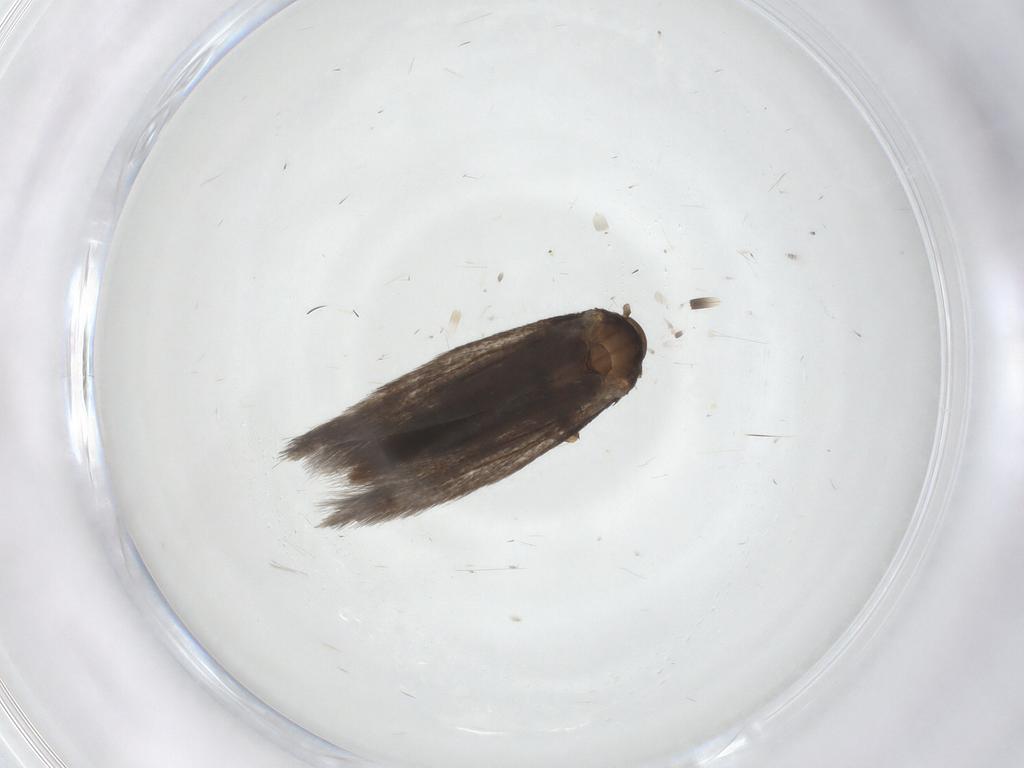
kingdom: Animalia
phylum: Arthropoda
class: Insecta
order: Lepidoptera
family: Elachistidae
